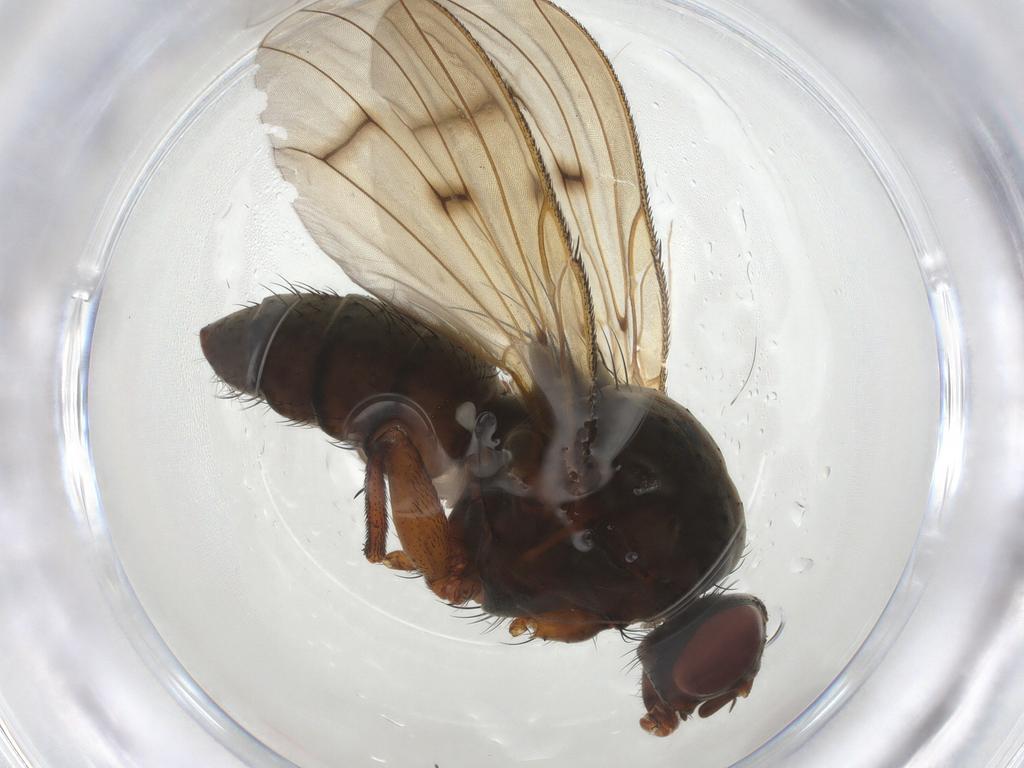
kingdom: Animalia
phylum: Arthropoda
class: Insecta
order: Diptera
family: Anthomyiidae
